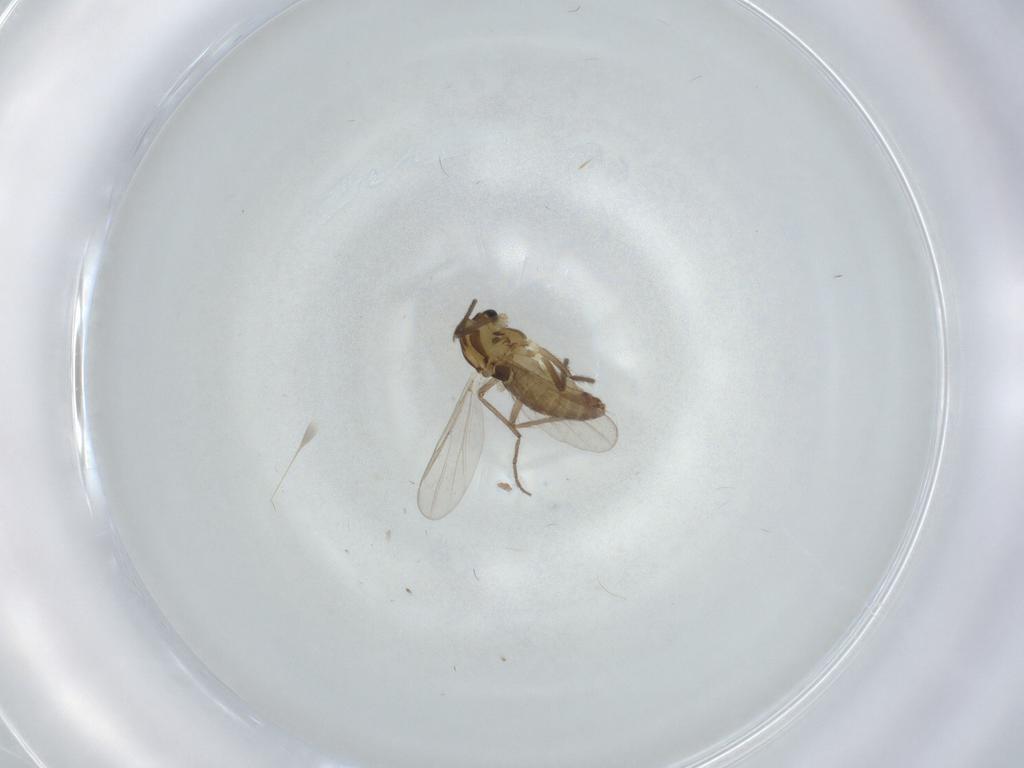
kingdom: Animalia
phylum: Arthropoda
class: Insecta
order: Diptera
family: Chironomidae
